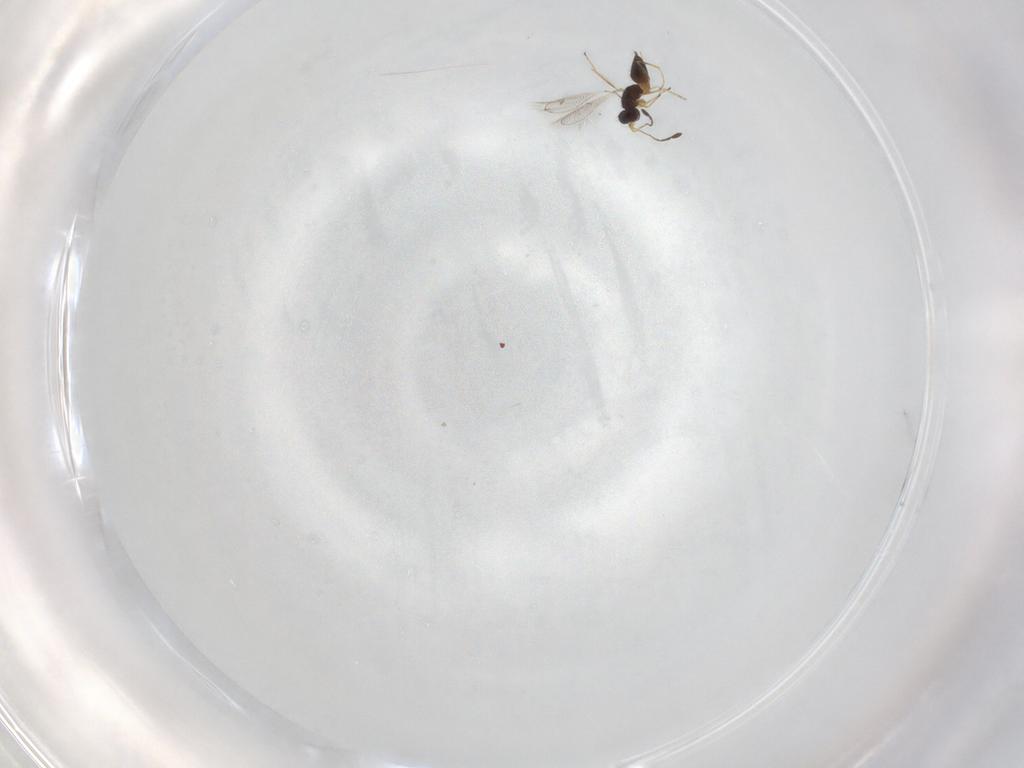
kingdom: Animalia
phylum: Arthropoda
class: Insecta
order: Hymenoptera
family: Mymaridae
